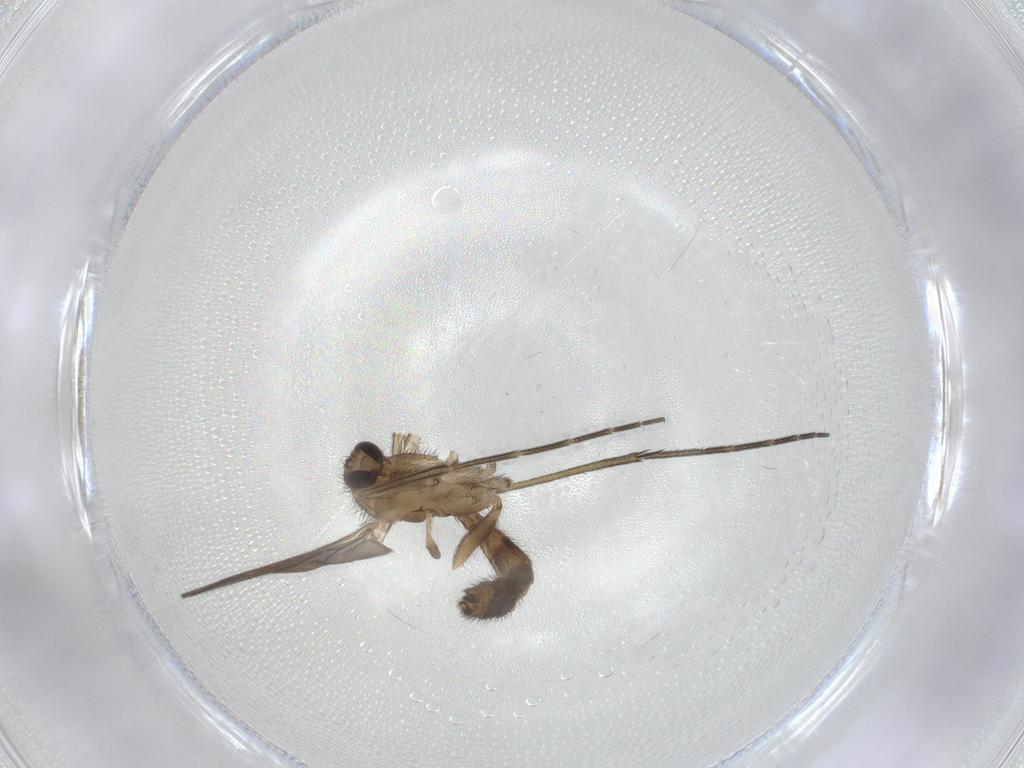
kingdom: Animalia
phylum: Arthropoda
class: Insecta
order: Diptera
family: Keroplatidae
